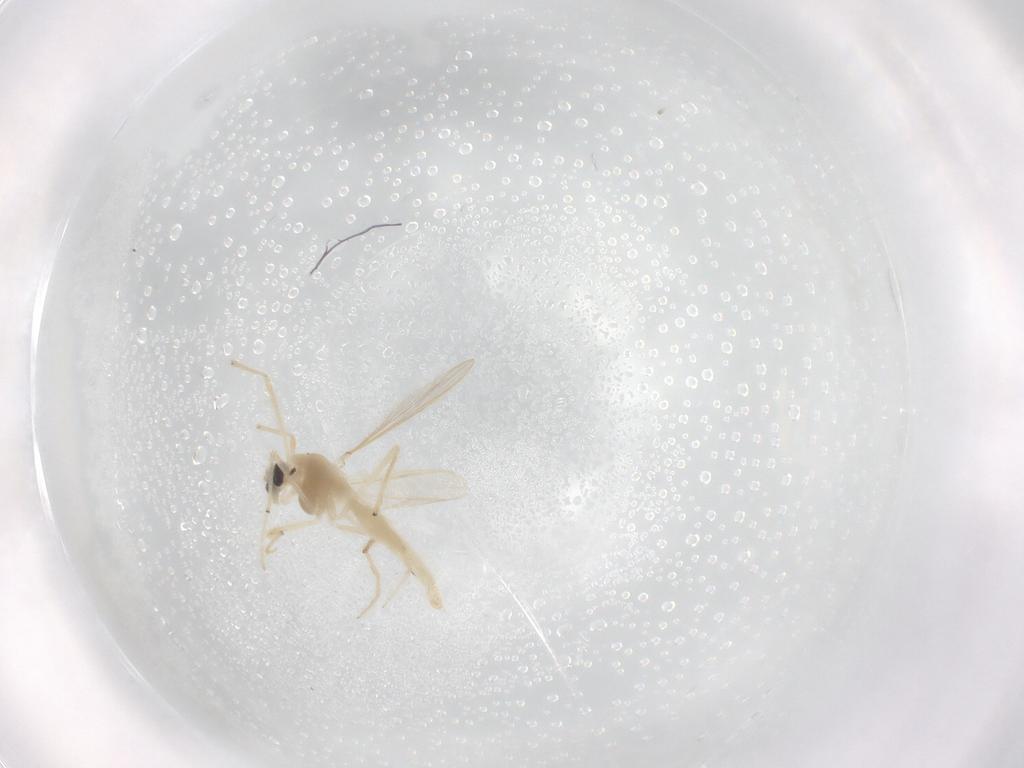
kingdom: Animalia
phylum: Arthropoda
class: Insecta
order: Diptera
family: Chironomidae
